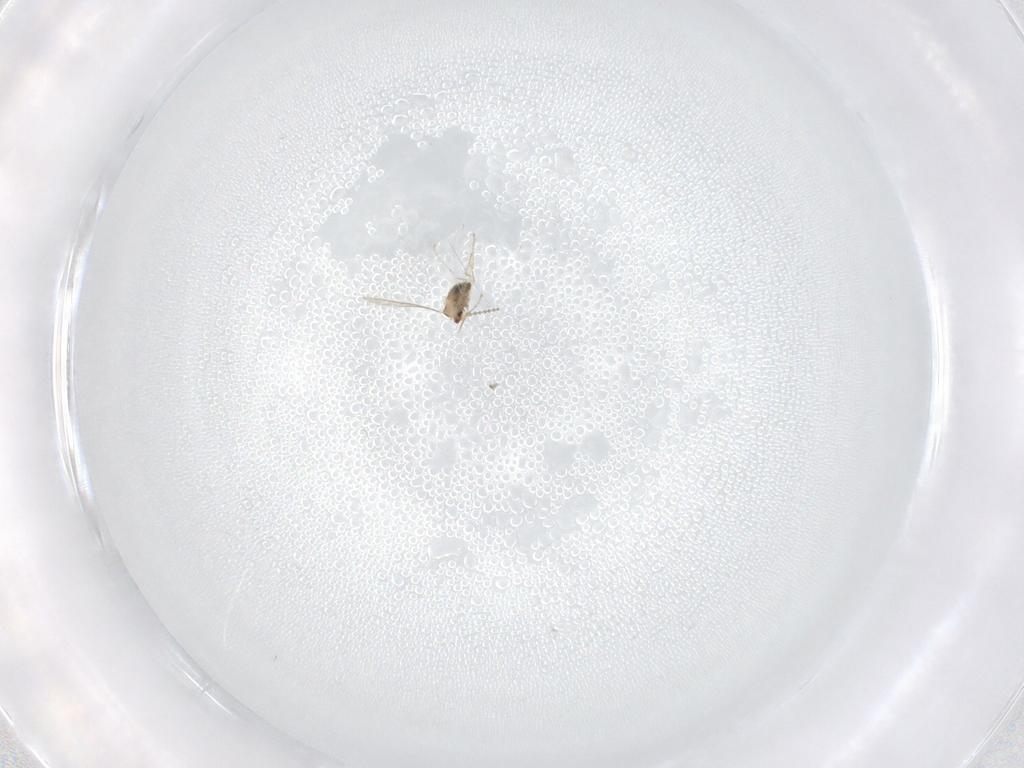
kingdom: Animalia
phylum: Arthropoda
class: Insecta
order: Diptera
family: Cecidomyiidae
